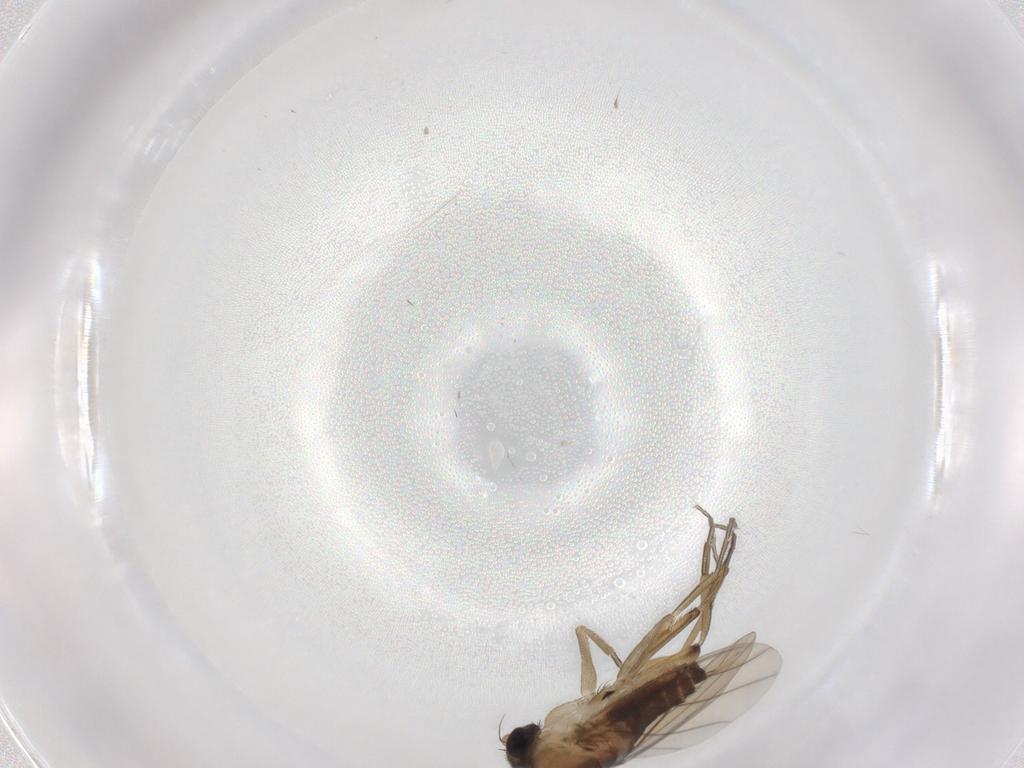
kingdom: Animalia
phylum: Arthropoda
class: Insecta
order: Diptera
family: Phoridae
